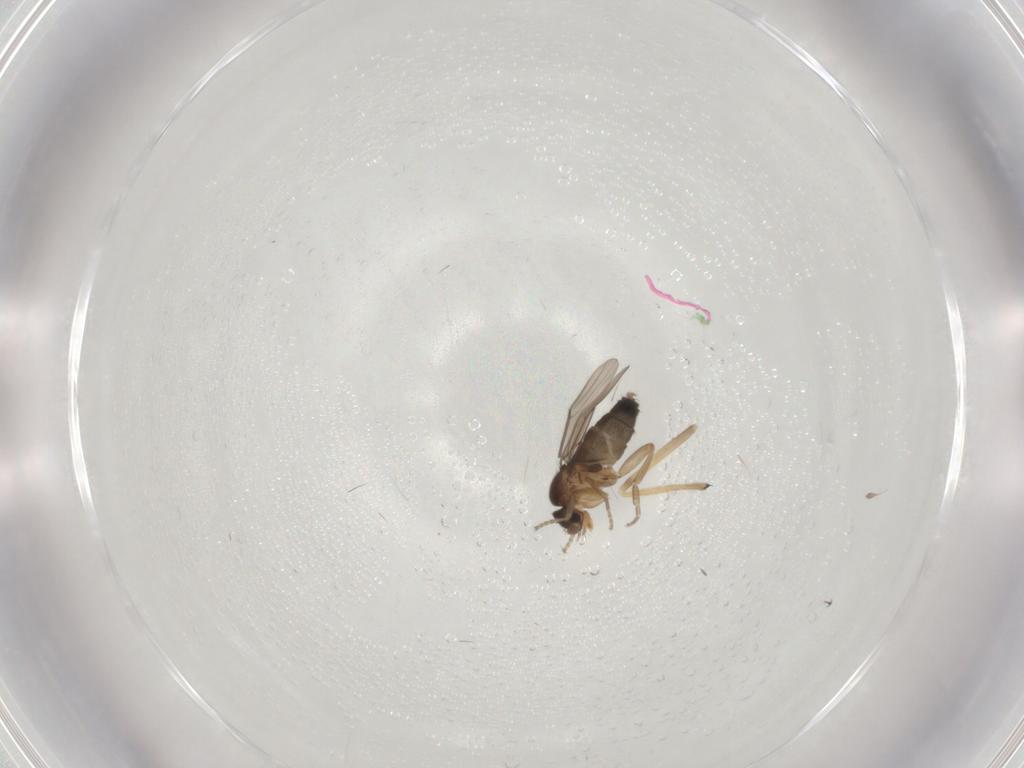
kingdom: Animalia
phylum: Arthropoda
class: Insecta
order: Diptera
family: Chironomidae
